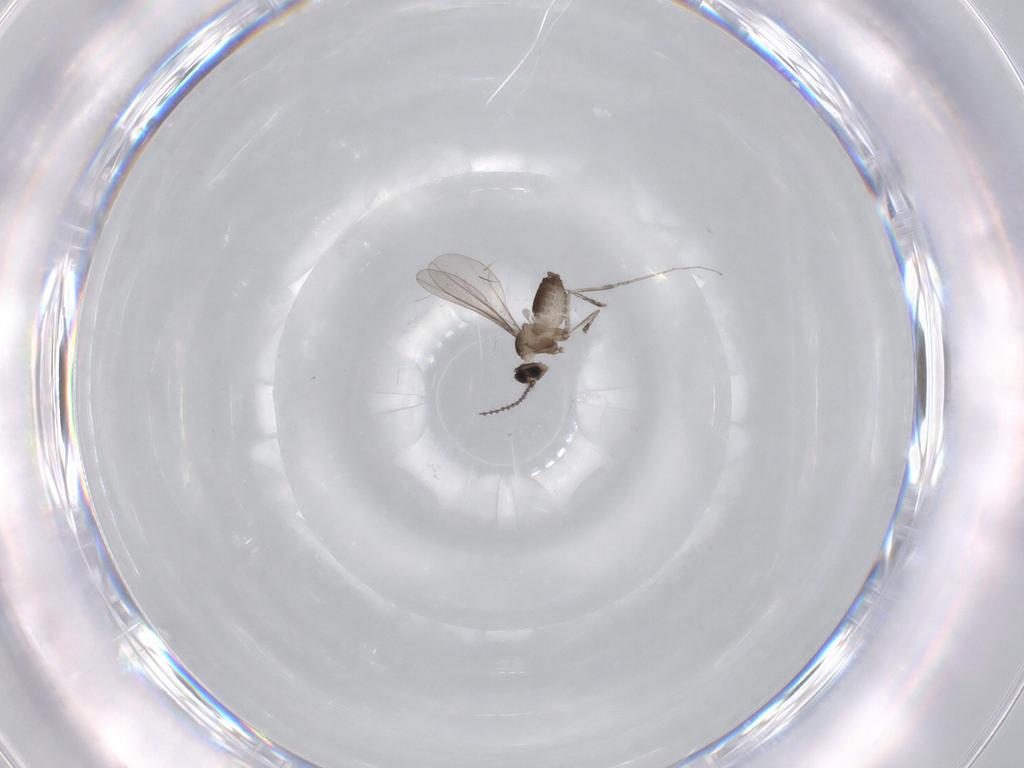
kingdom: Animalia
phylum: Arthropoda
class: Insecta
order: Diptera
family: Cecidomyiidae
